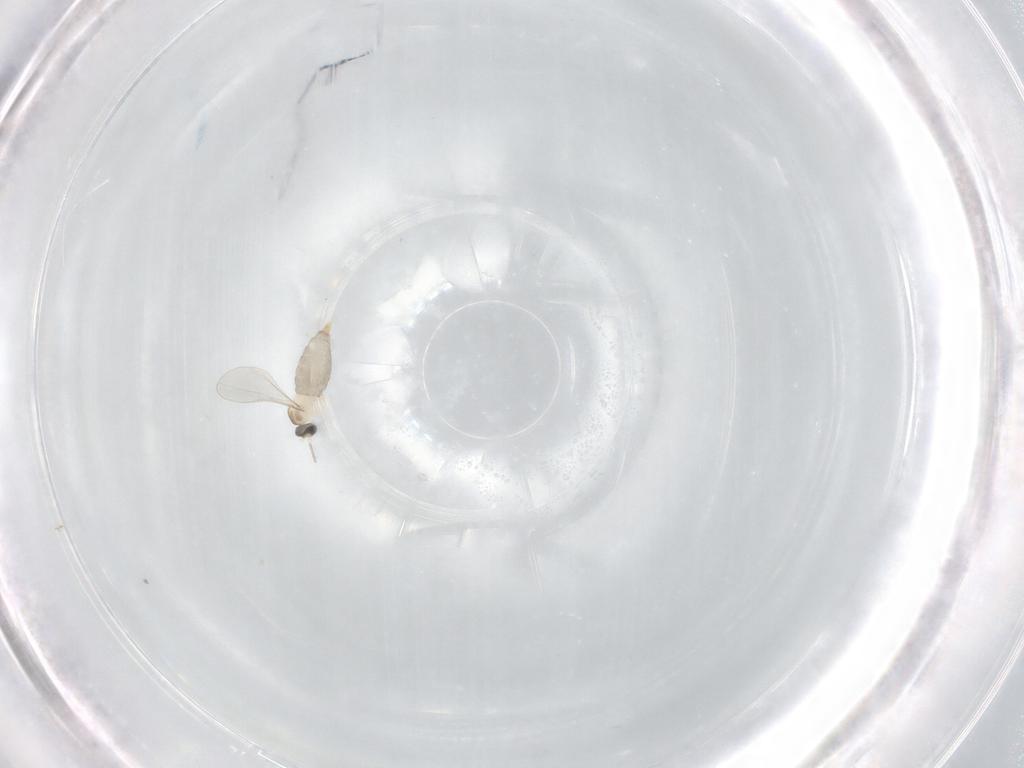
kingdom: Animalia
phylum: Arthropoda
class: Insecta
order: Diptera
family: Cecidomyiidae
